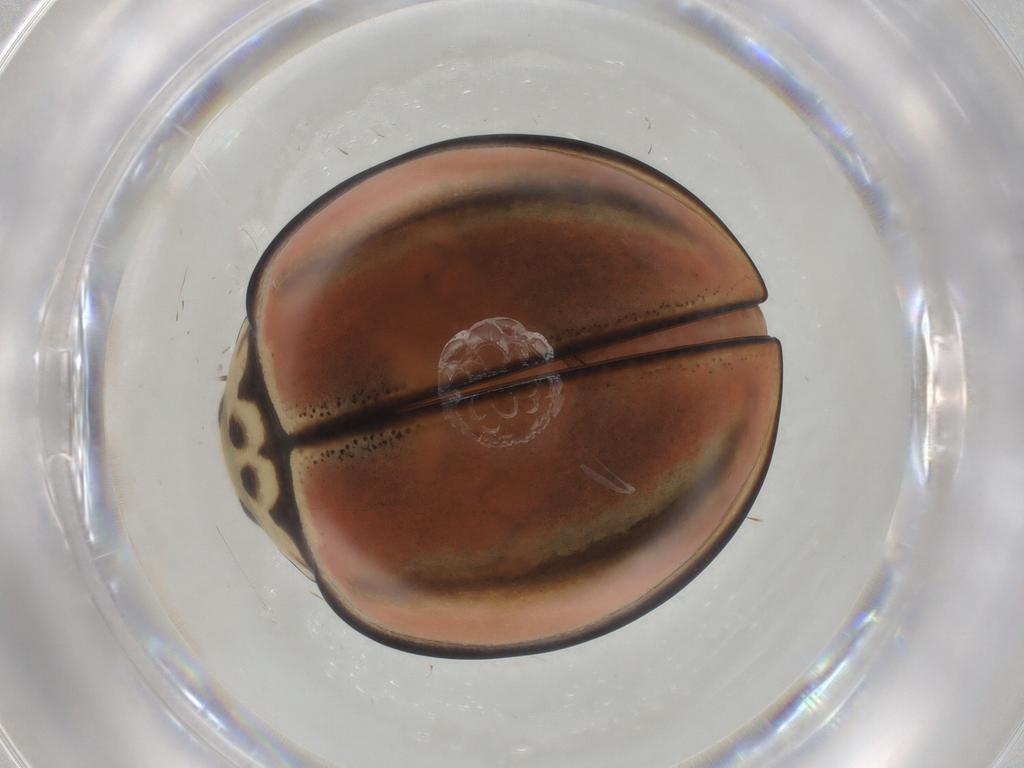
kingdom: Animalia
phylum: Arthropoda
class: Insecta
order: Coleoptera
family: Coccinellidae
